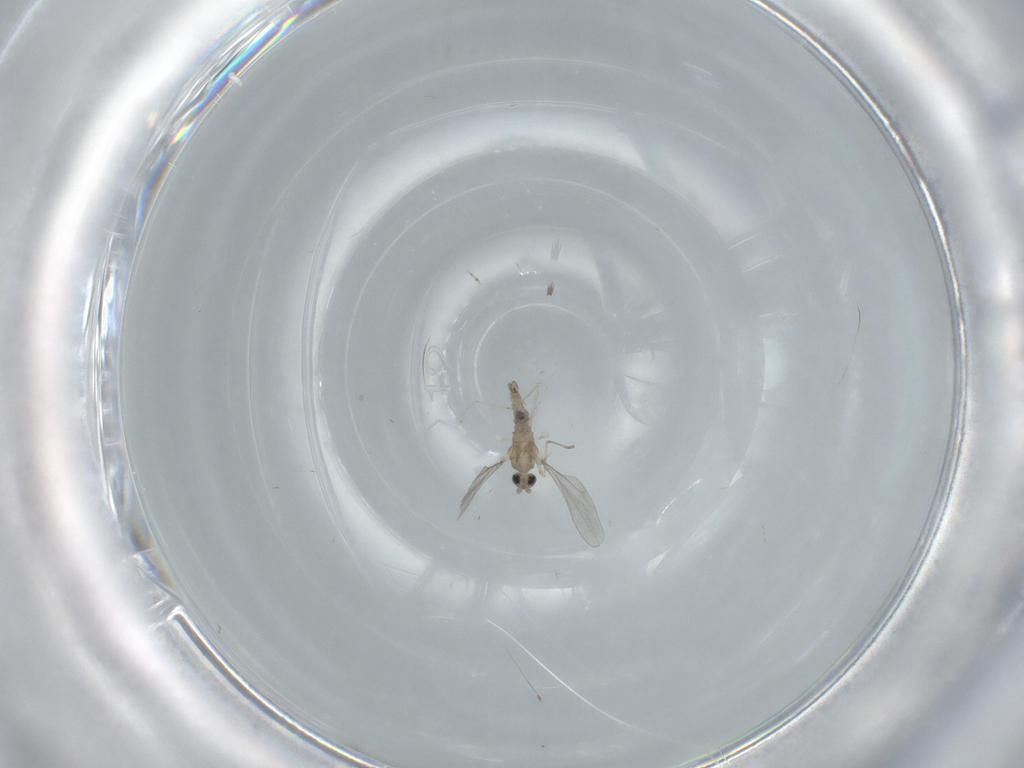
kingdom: Animalia
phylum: Arthropoda
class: Insecta
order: Diptera
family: Cecidomyiidae
